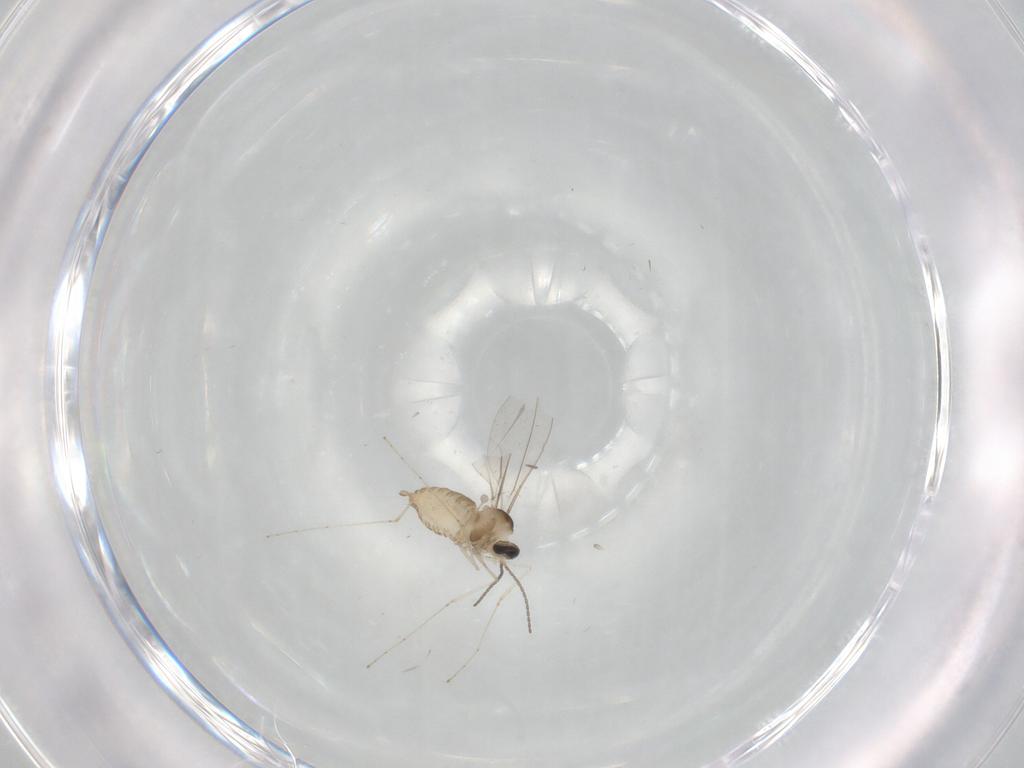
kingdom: Animalia
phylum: Arthropoda
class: Insecta
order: Diptera
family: Cecidomyiidae
